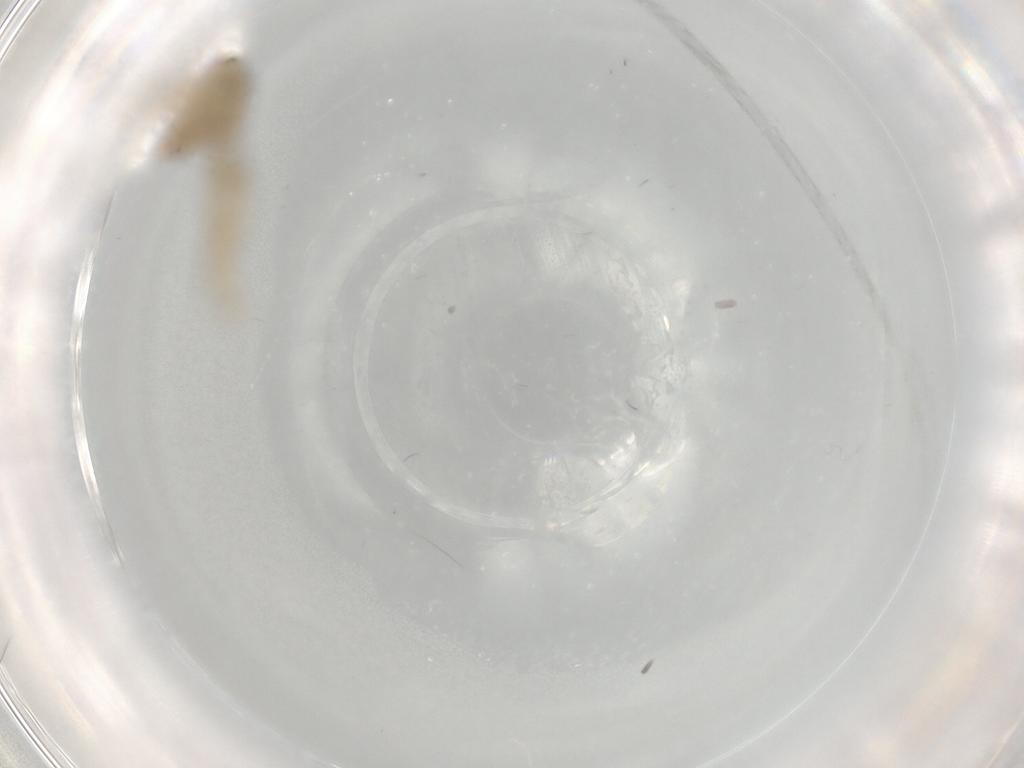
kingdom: Animalia
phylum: Arthropoda
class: Insecta
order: Diptera
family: Psychodidae
